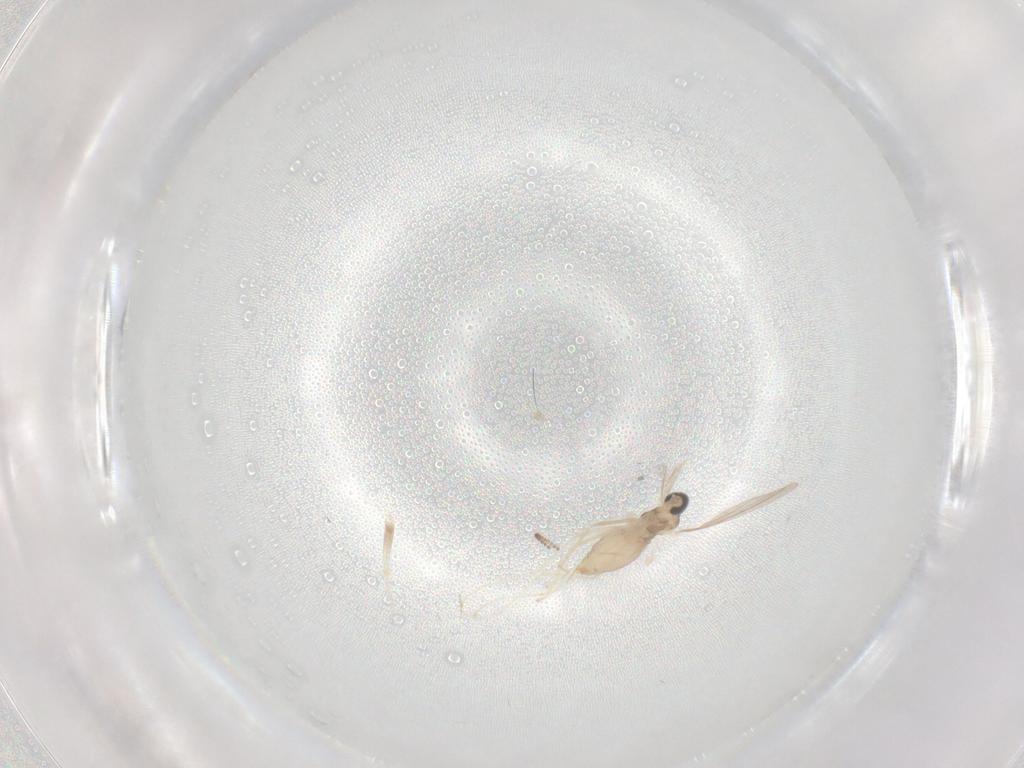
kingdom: Animalia
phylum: Arthropoda
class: Insecta
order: Diptera
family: Cecidomyiidae
